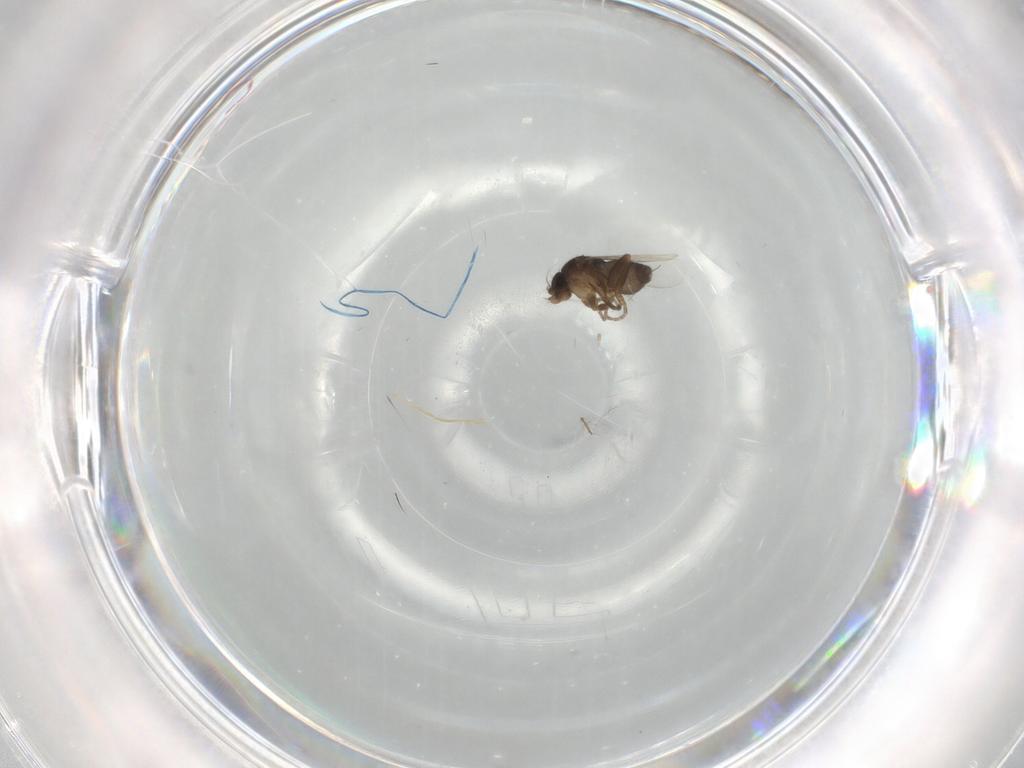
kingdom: Animalia
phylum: Arthropoda
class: Insecta
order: Diptera
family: Phoridae
